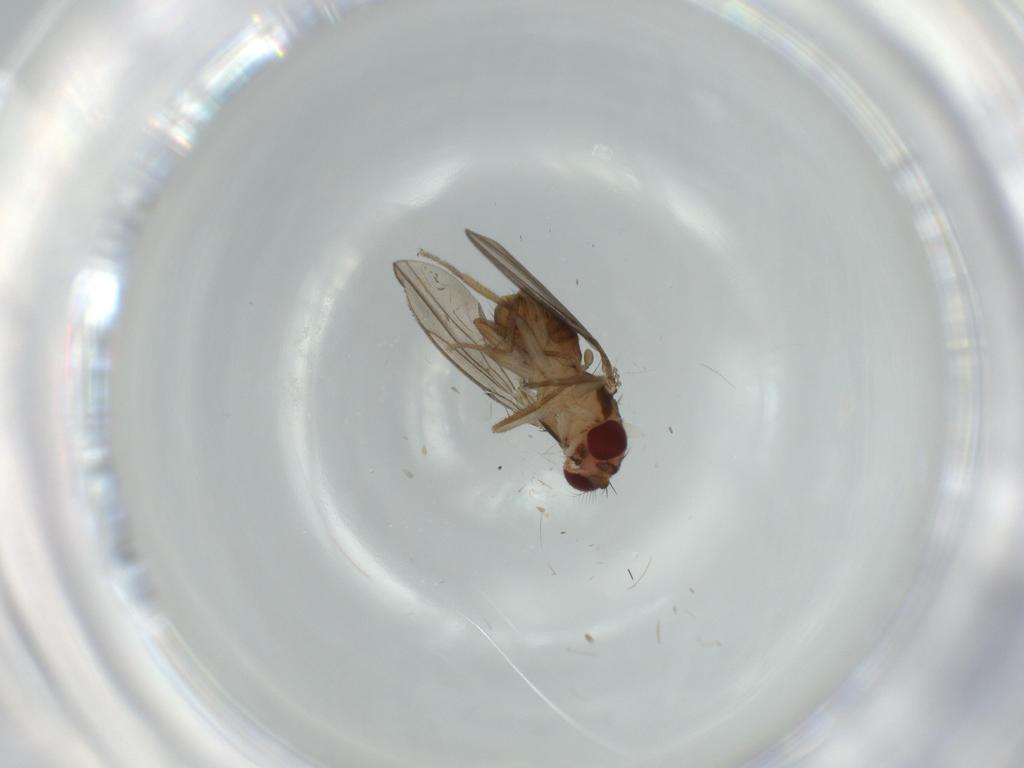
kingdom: Animalia
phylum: Arthropoda
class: Insecta
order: Diptera
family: Drosophilidae
